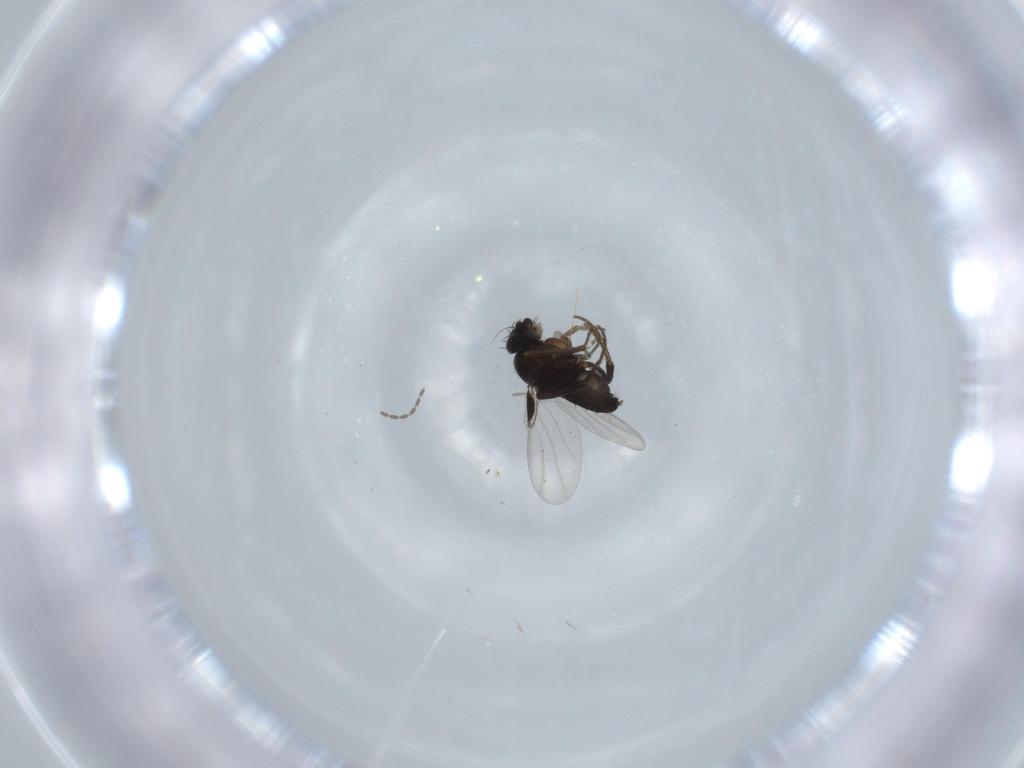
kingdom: Animalia
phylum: Arthropoda
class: Insecta
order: Diptera
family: Phoridae
